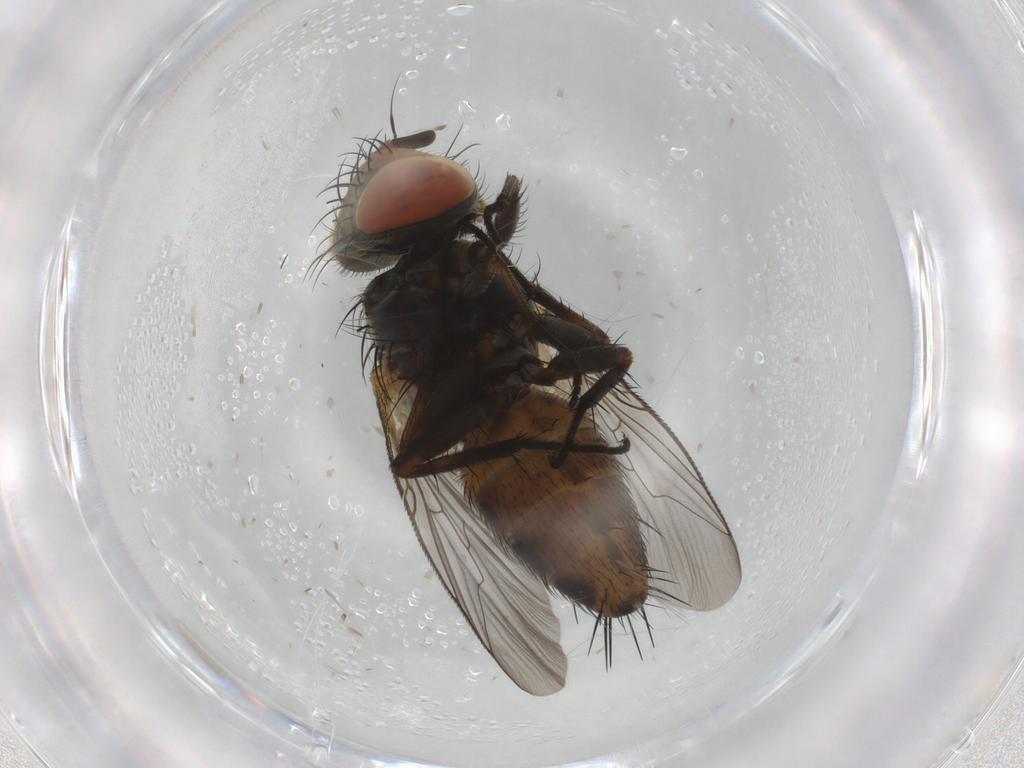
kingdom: Animalia
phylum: Arthropoda
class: Insecta
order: Diptera
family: Sarcophagidae
